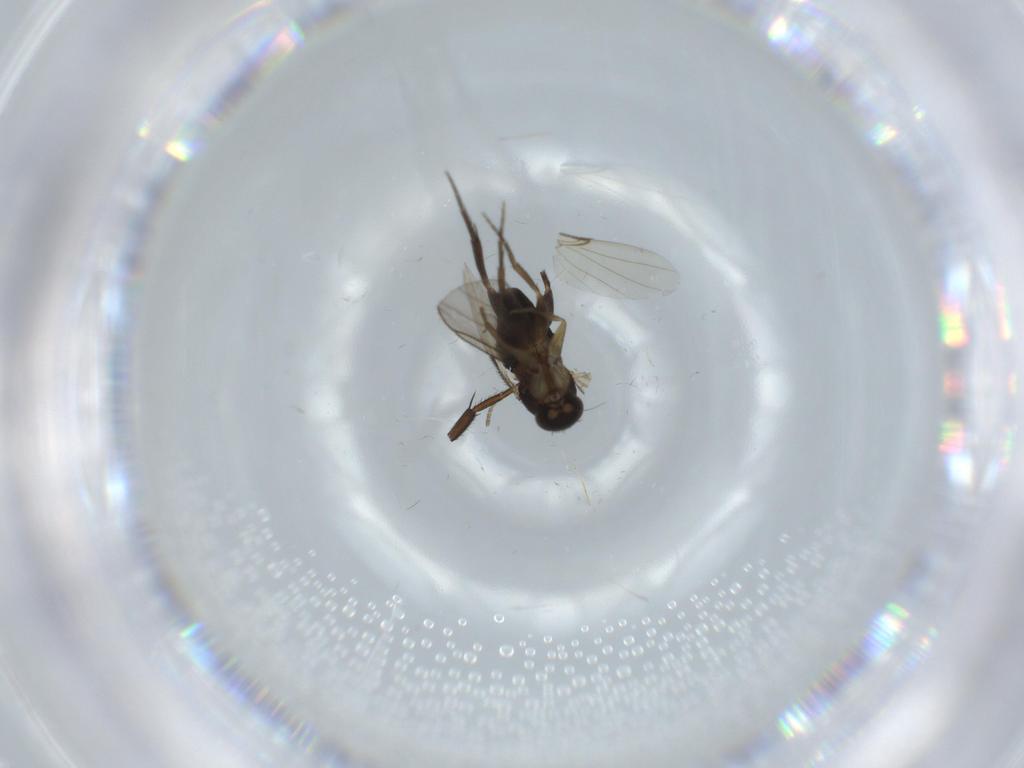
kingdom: Animalia
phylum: Arthropoda
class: Insecta
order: Diptera
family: Phoridae
